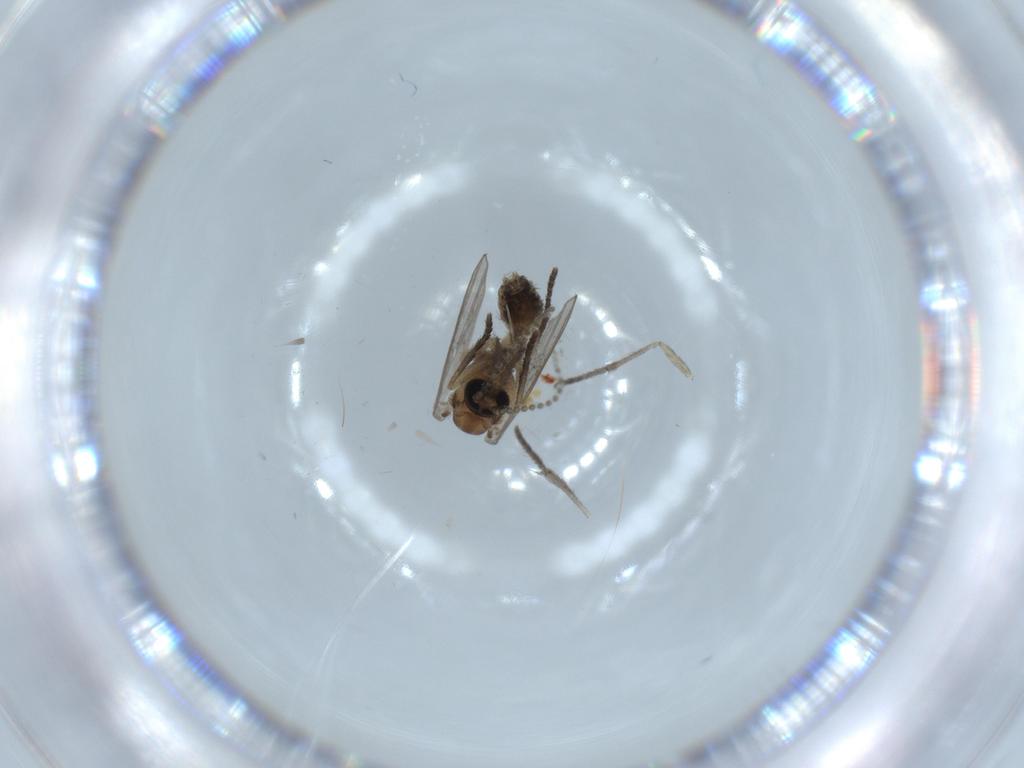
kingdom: Animalia
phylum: Arthropoda
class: Insecta
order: Diptera
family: Psychodidae
